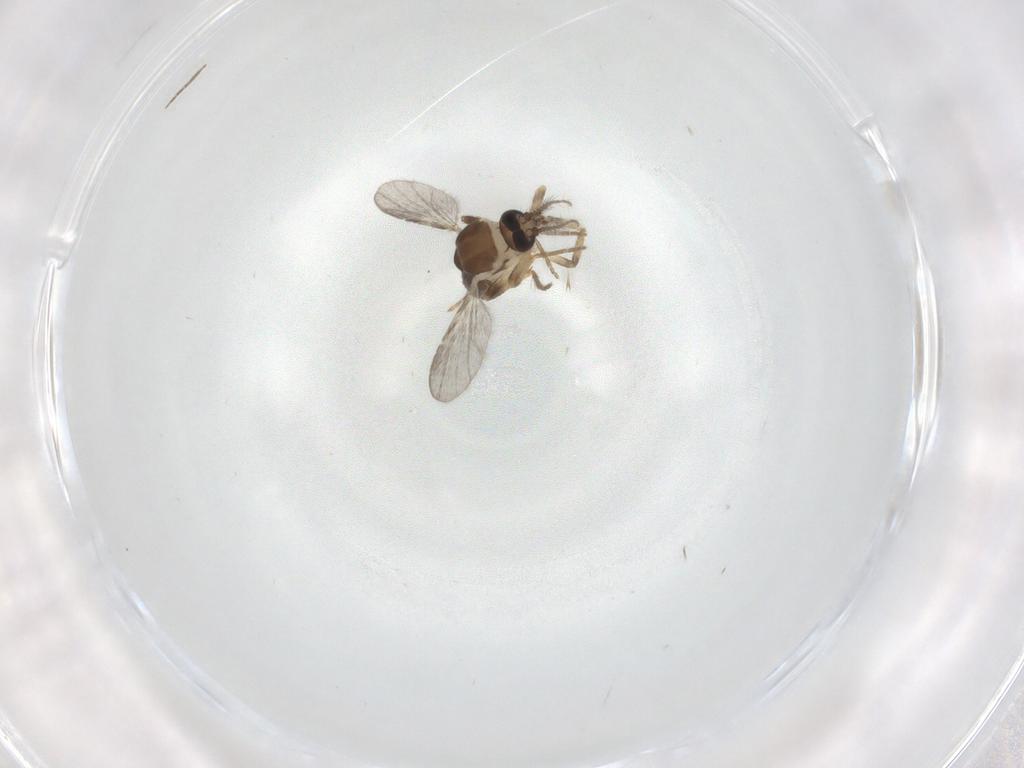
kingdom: Animalia
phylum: Arthropoda
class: Insecta
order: Diptera
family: Ceratopogonidae
